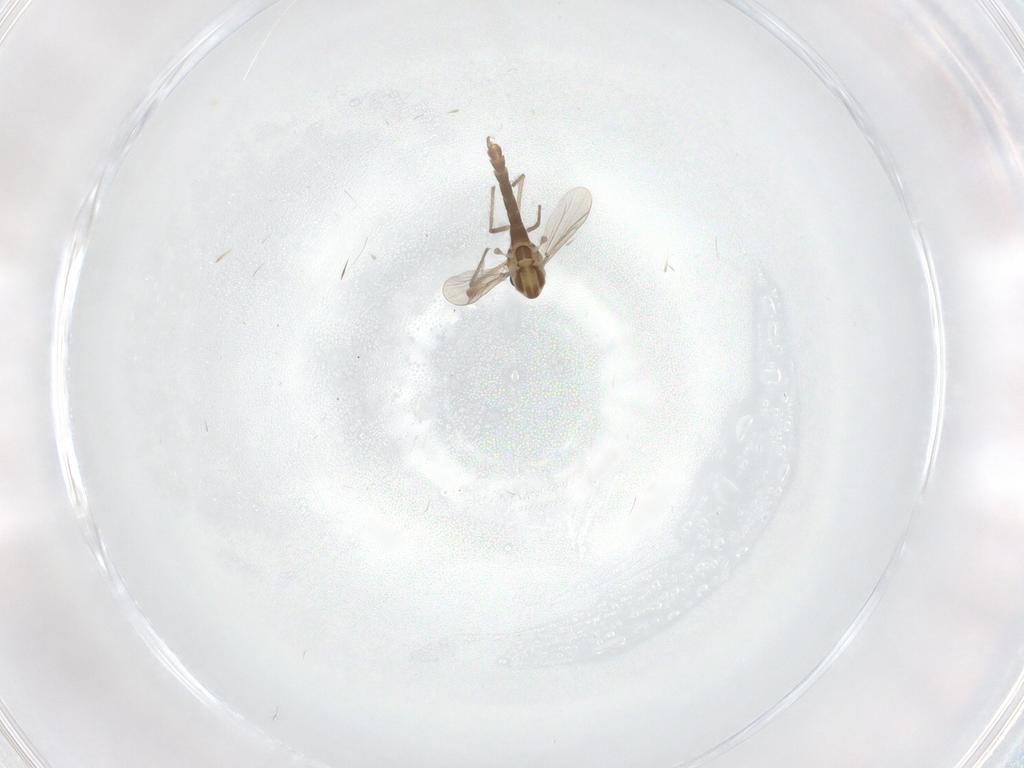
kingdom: Animalia
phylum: Arthropoda
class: Insecta
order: Diptera
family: Chironomidae
